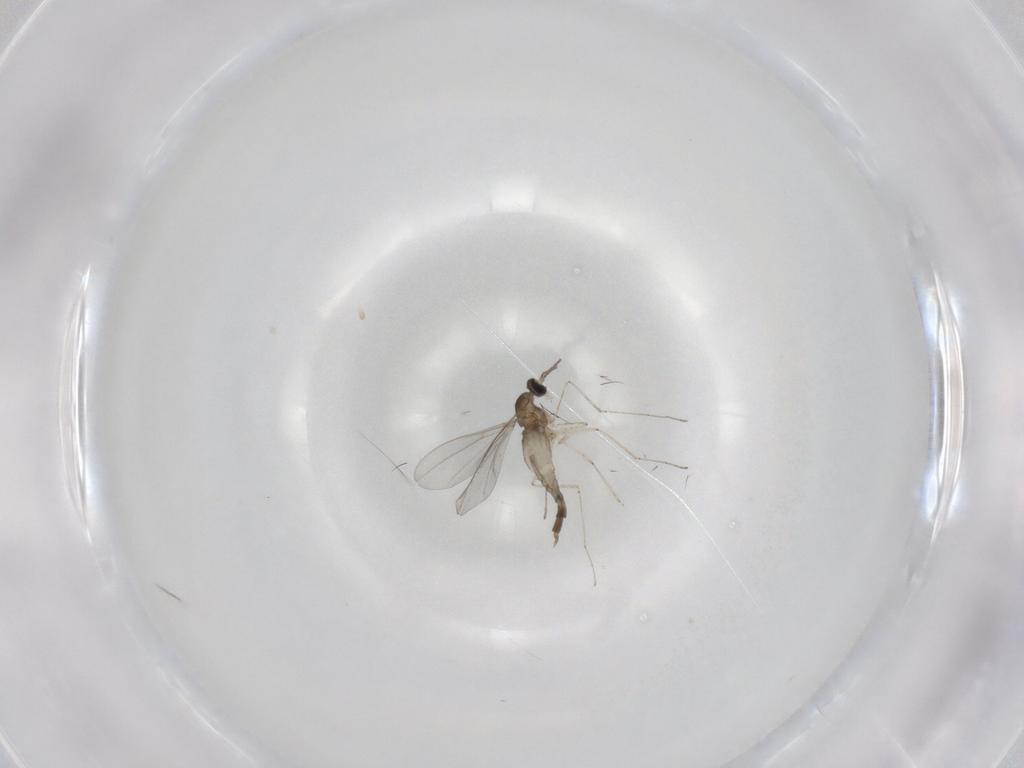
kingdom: Animalia
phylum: Arthropoda
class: Insecta
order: Diptera
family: Cecidomyiidae
